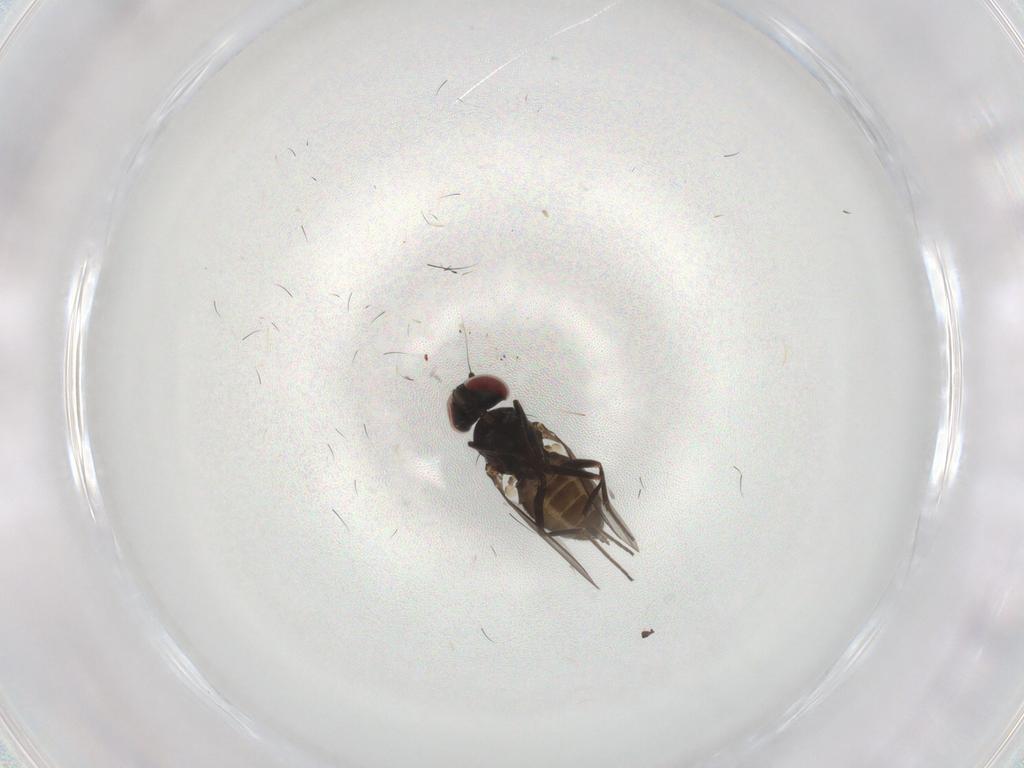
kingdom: Animalia
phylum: Arthropoda
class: Insecta
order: Diptera
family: Dolichopodidae
